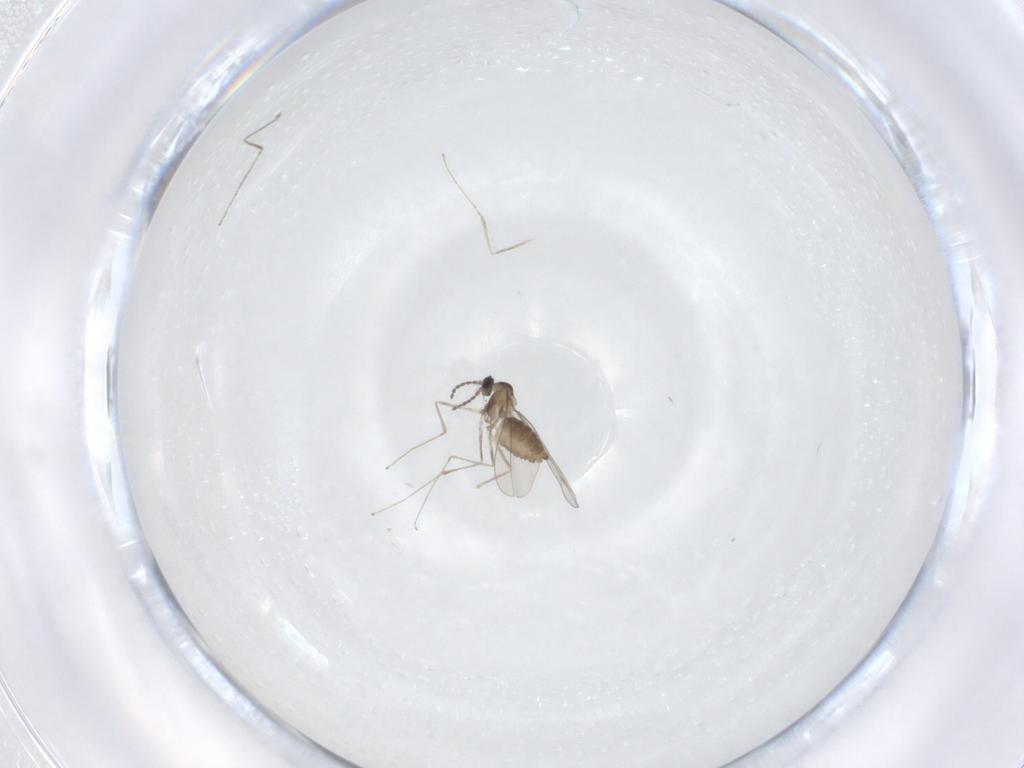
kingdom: Animalia
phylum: Arthropoda
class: Insecta
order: Diptera
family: Cecidomyiidae
